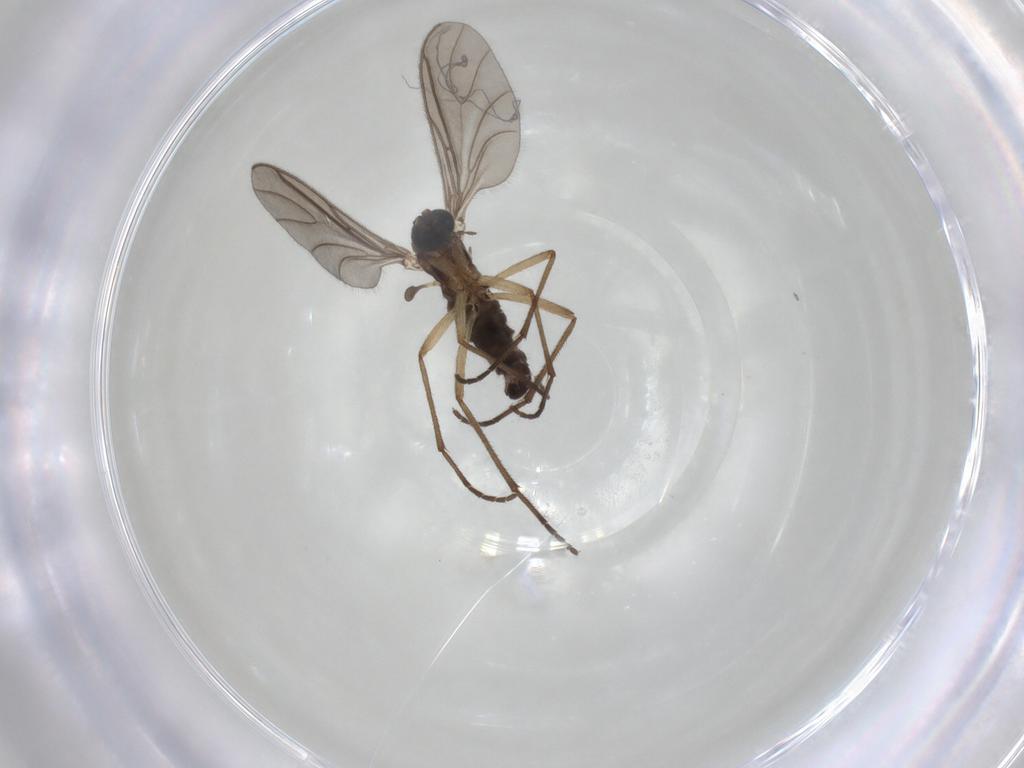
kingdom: Animalia
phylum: Arthropoda
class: Insecta
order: Diptera
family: Sciaridae
